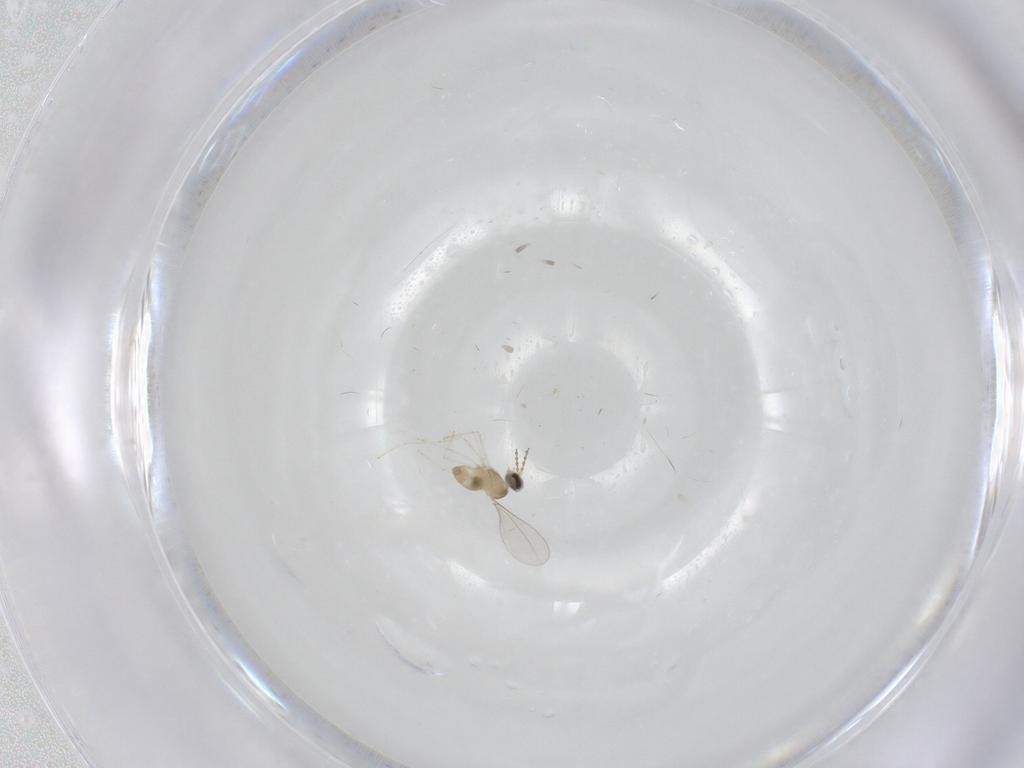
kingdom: Animalia
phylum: Arthropoda
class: Insecta
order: Diptera
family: Cecidomyiidae
